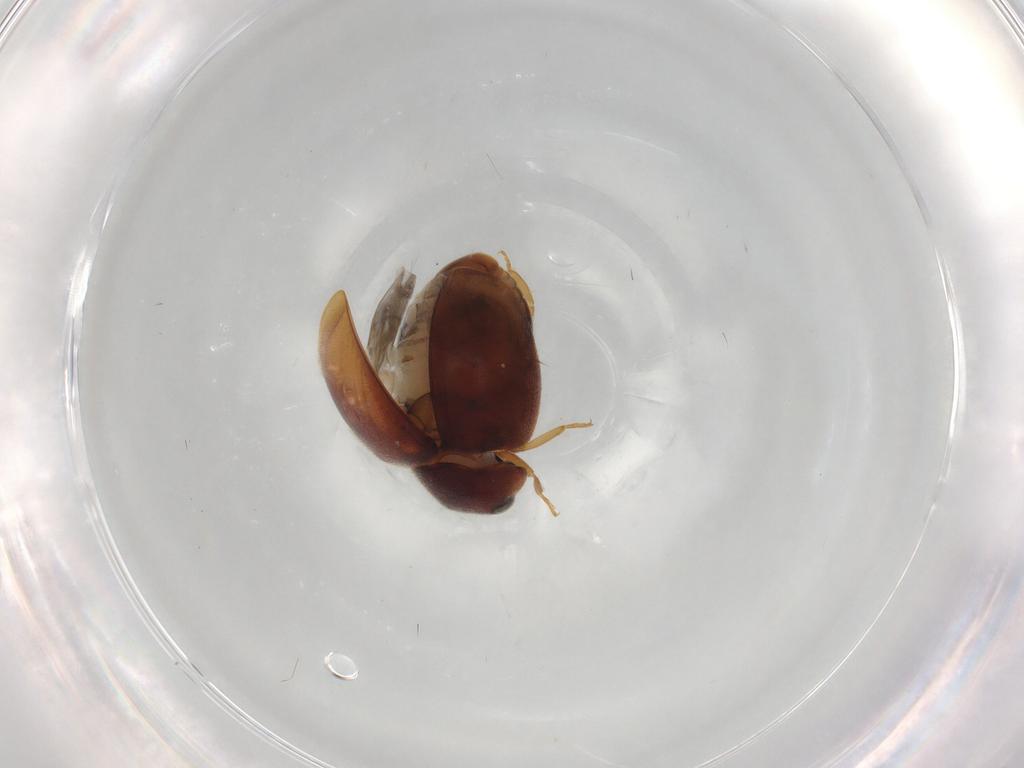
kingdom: Animalia
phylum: Arthropoda
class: Insecta
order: Coleoptera
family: Coccinellidae
